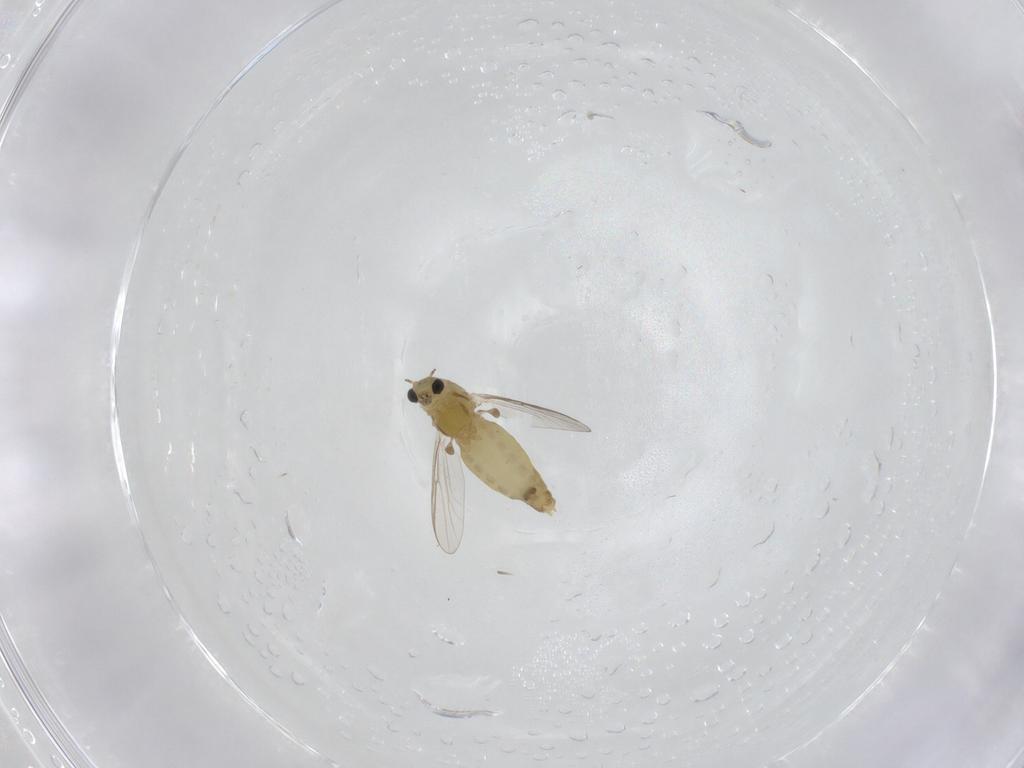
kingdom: Animalia
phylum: Arthropoda
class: Insecta
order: Diptera
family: Chironomidae
